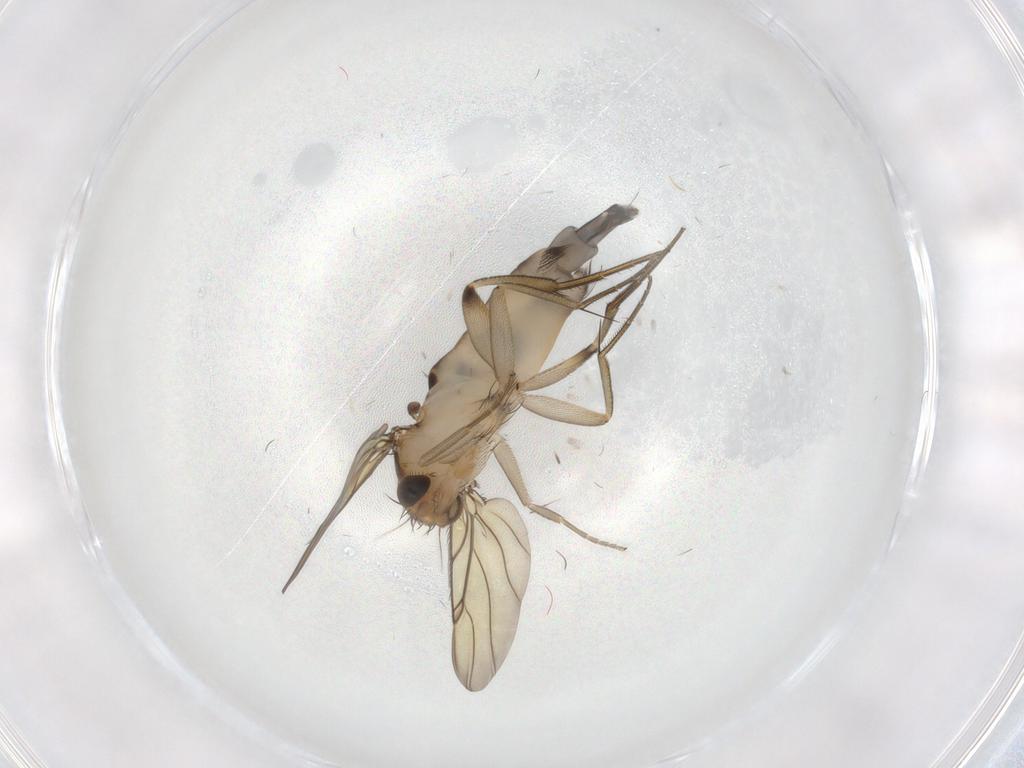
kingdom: Animalia
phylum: Arthropoda
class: Insecta
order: Diptera
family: Phoridae
